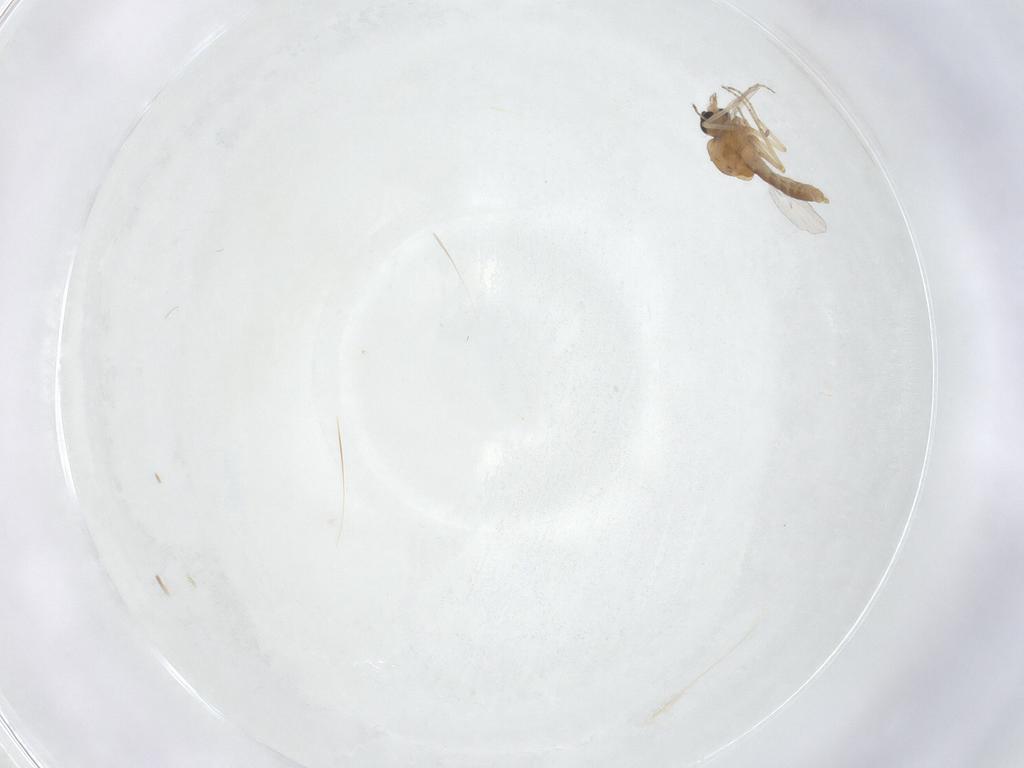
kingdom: Animalia
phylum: Arthropoda
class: Insecta
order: Diptera
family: Ceratopogonidae
